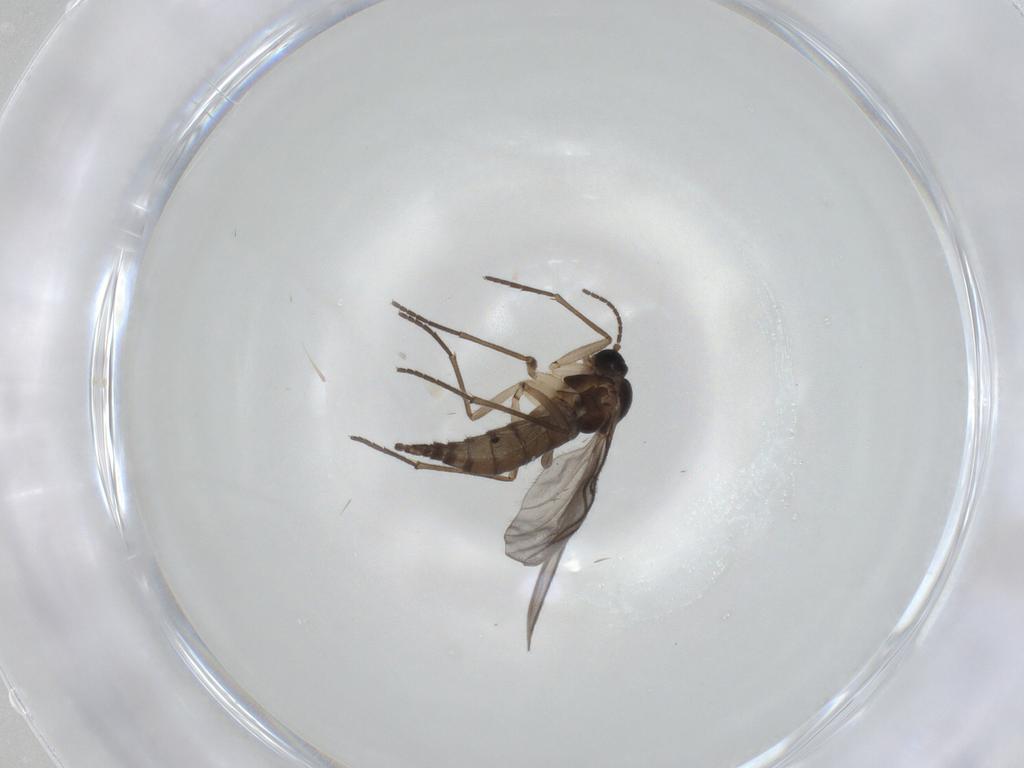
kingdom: Animalia
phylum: Arthropoda
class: Insecta
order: Diptera
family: Sciaridae
